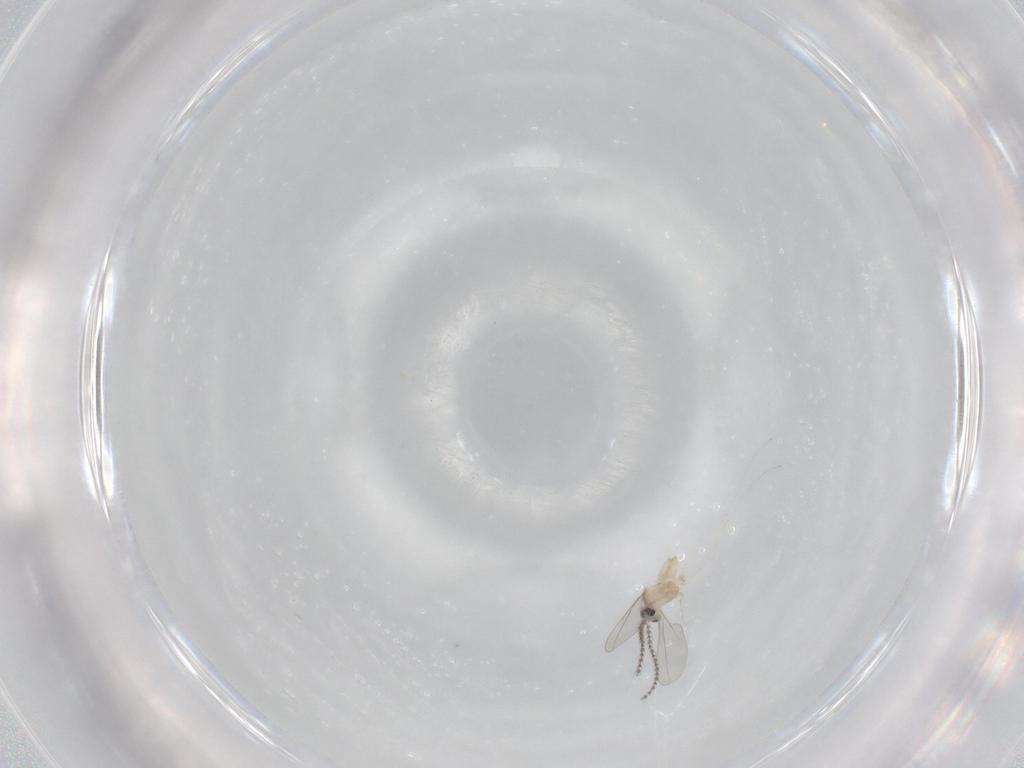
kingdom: Animalia
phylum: Arthropoda
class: Insecta
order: Diptera
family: Cecidomyiidae
